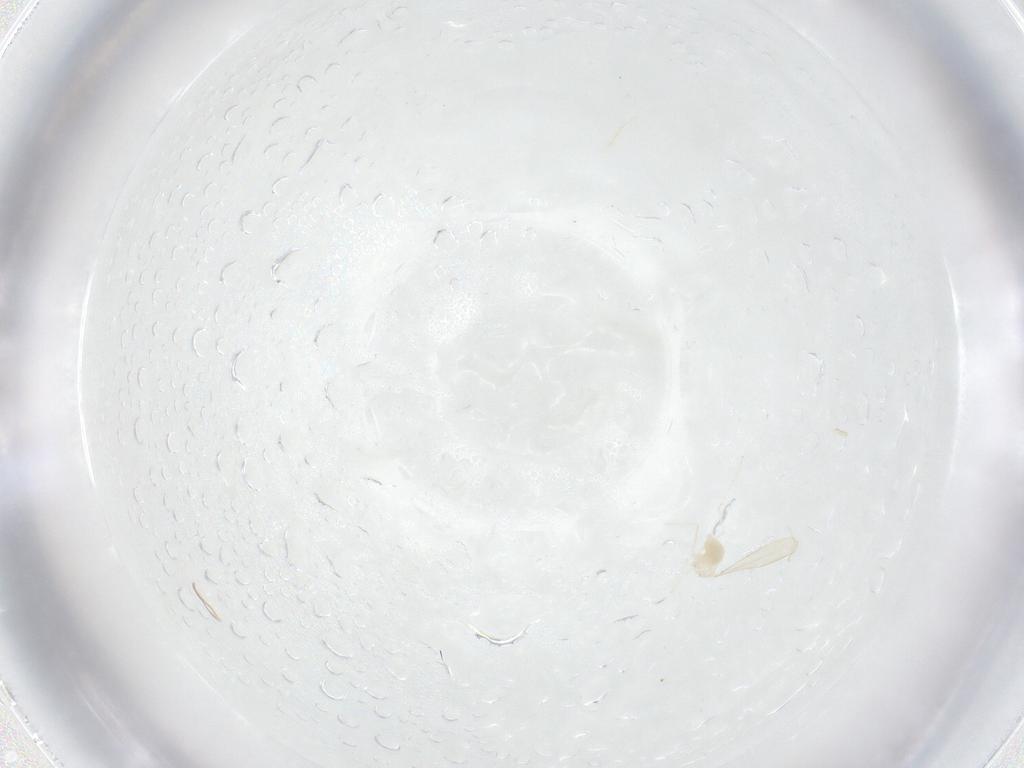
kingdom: Animalia
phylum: Arthropoda
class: Insecta
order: Diptera
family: Cecidomyiidae
